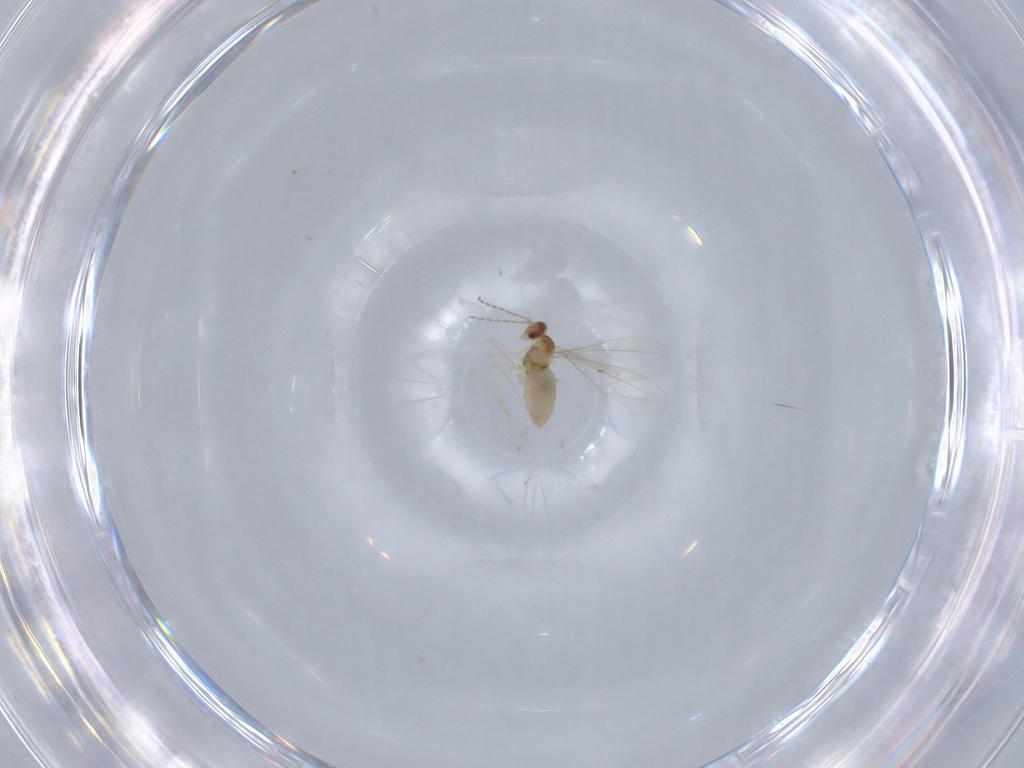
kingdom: Animalia
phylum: Arthropoda
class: Insecta
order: Diptera
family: Cecidomyiidae
